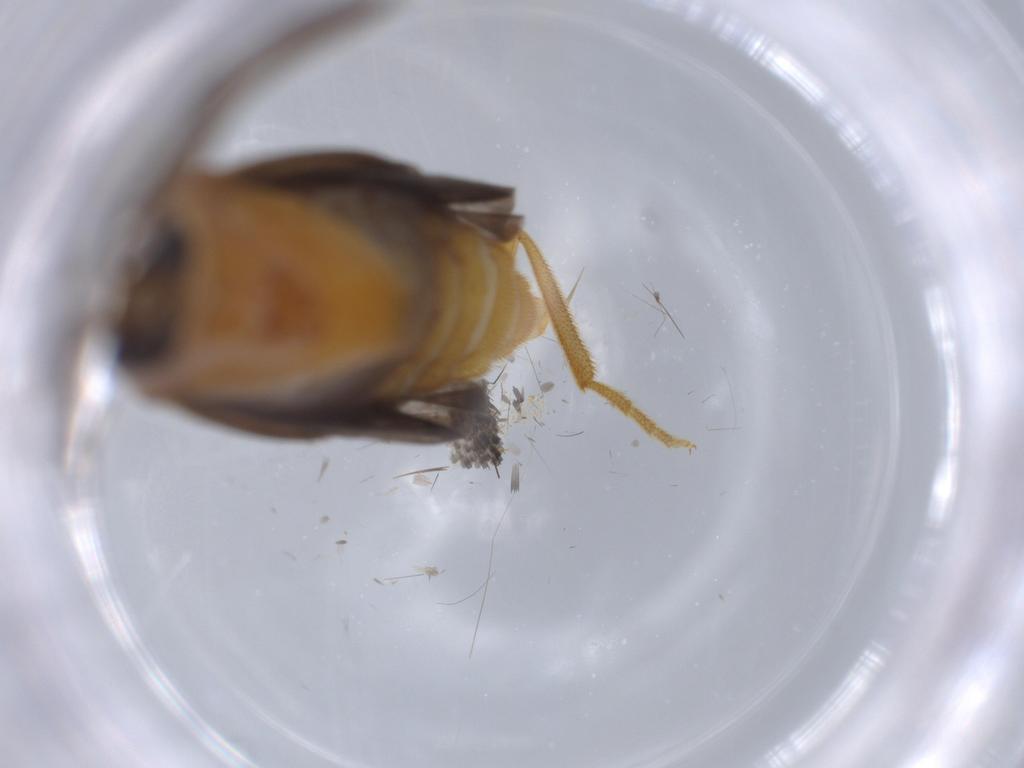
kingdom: Animalia
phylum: Arthropoda
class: Insecta
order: Coleoptera
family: Lampyridae
